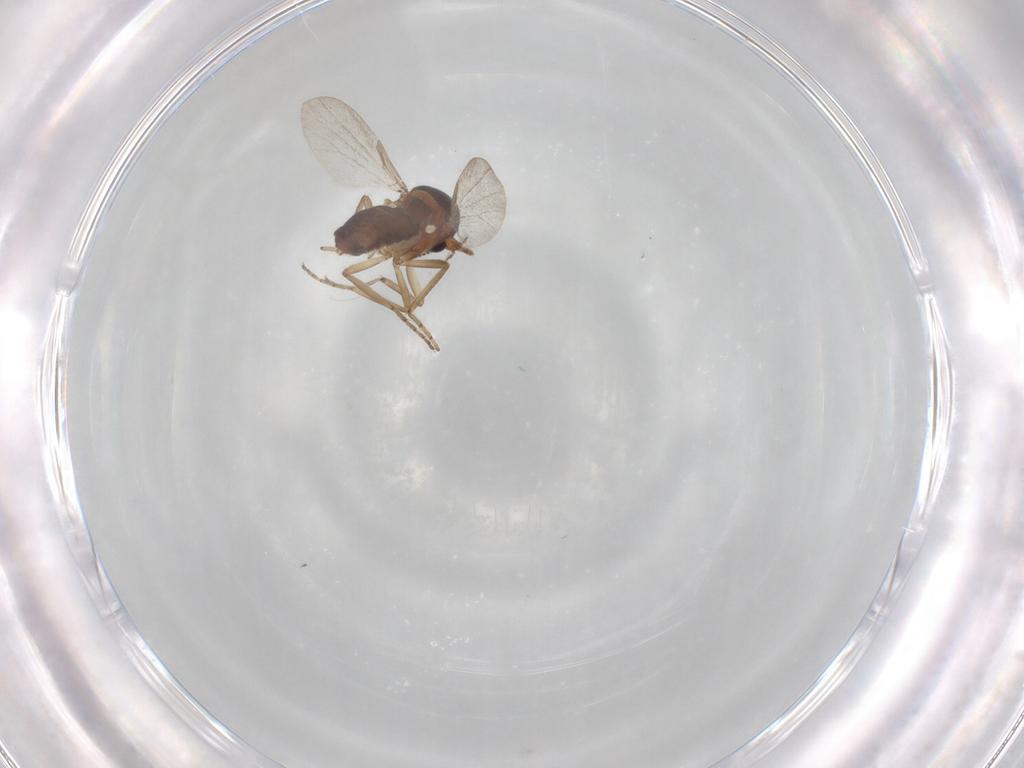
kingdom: Animalia
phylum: Arthropoda
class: Insecta
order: Diptera
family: Ceratopogonidae
